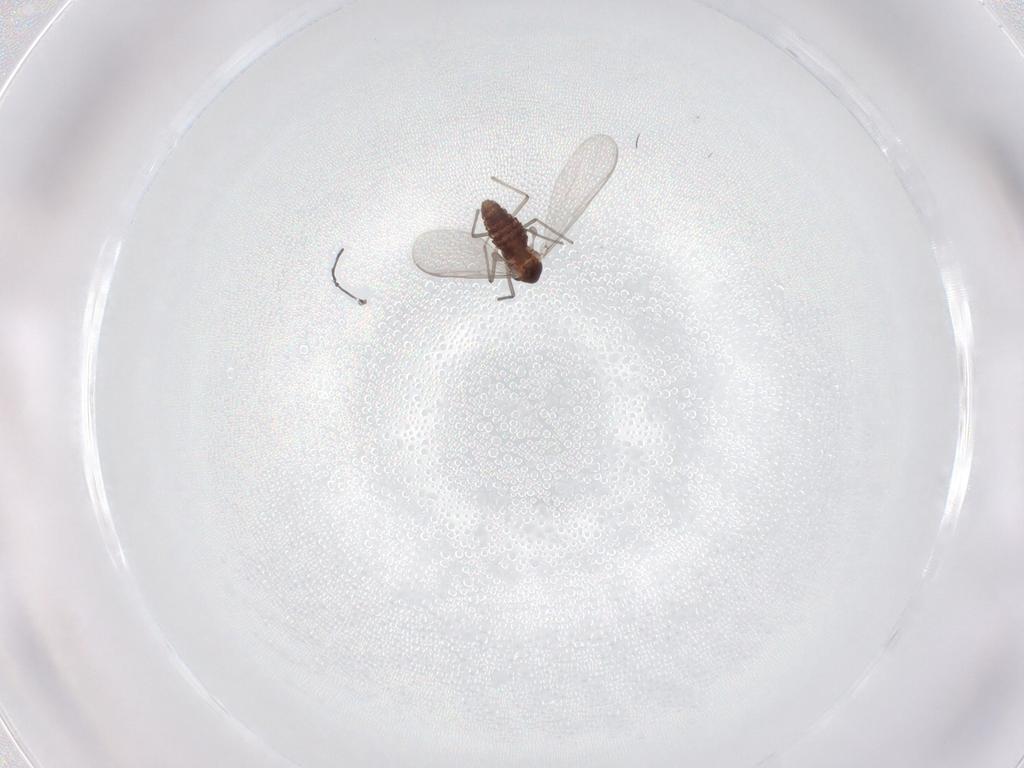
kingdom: Animalia
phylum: Arthropoda
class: Insecta
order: Diptera
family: Chironomidae
